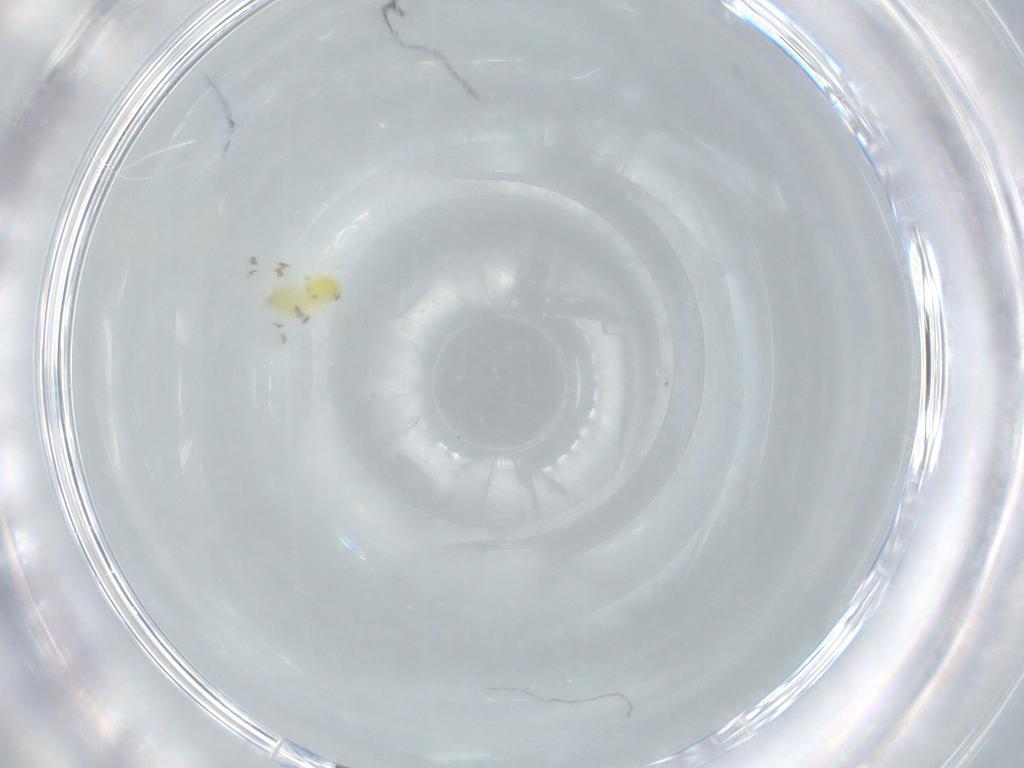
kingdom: Animalia
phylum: Arthropoda
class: Insecta
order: Hemiptera
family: Aleyrodidae
